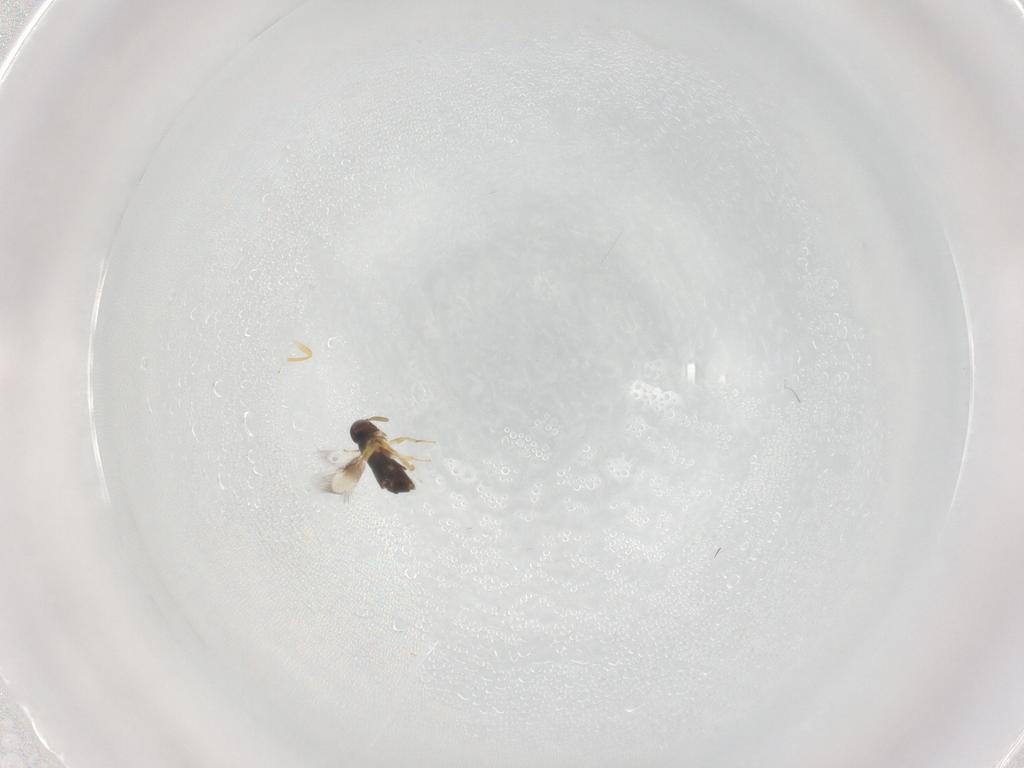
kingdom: Animalia
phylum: Arthropoda
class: Insecta
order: Hymenoptera
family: Signiphoridae
